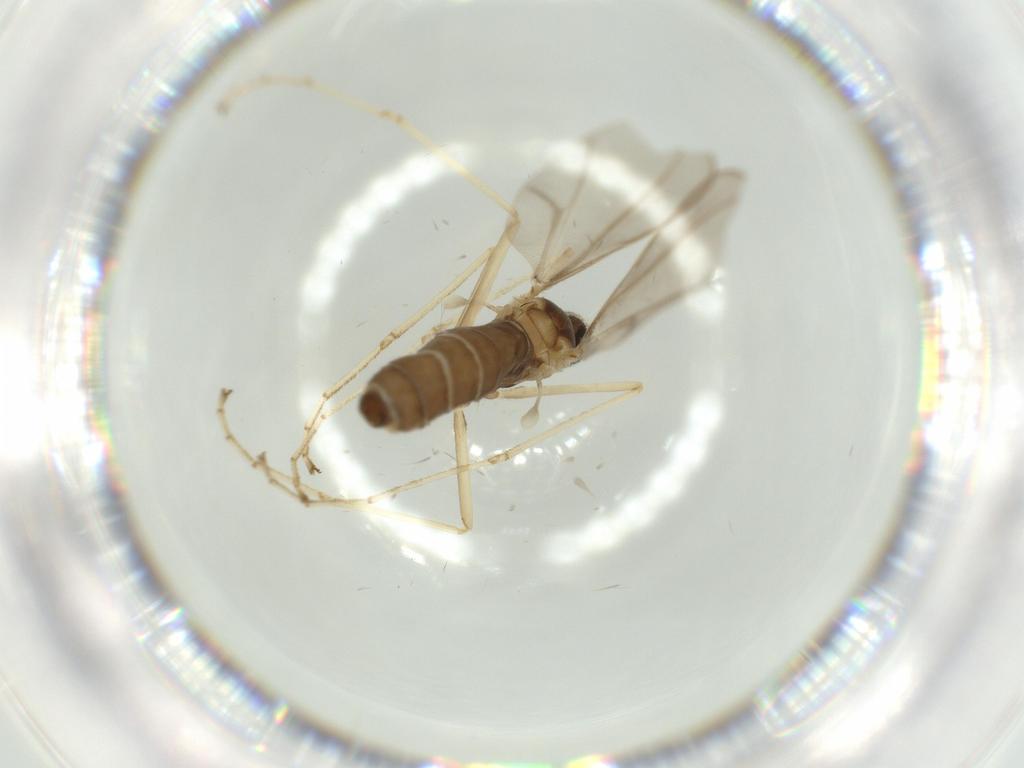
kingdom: Animalia
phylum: Arthropoda
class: Insecta
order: Diptera
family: Cecidomyiidae
